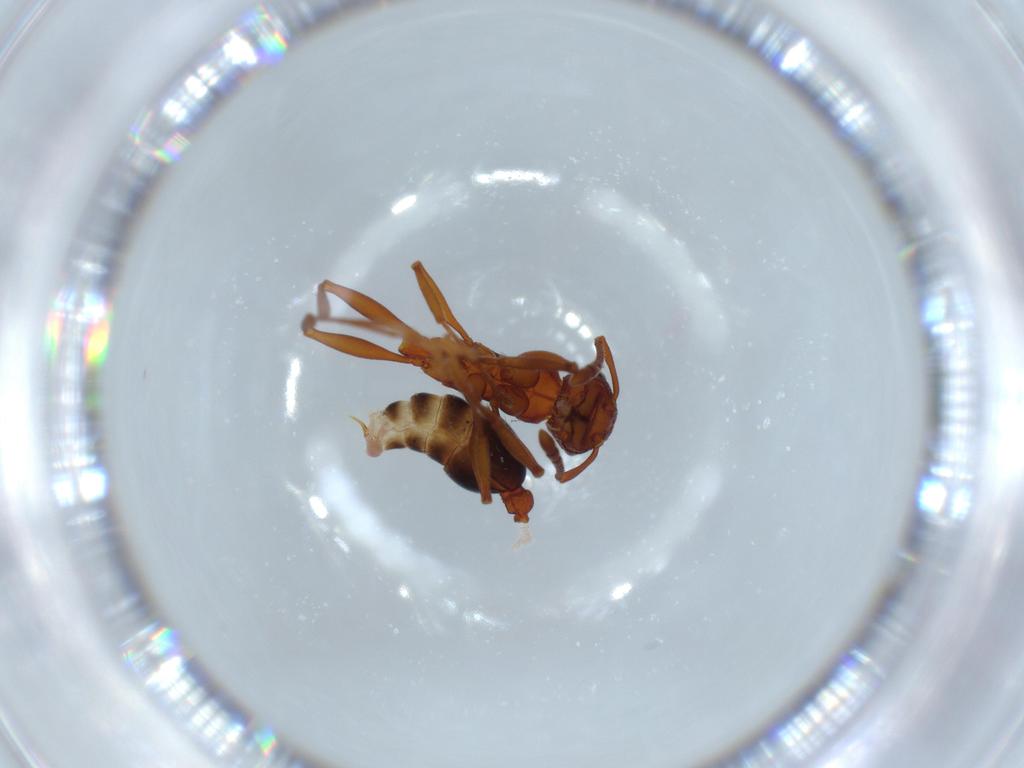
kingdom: Animalia
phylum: Arthropoda
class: Insecta
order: Hymenoptera
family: Formicidae
